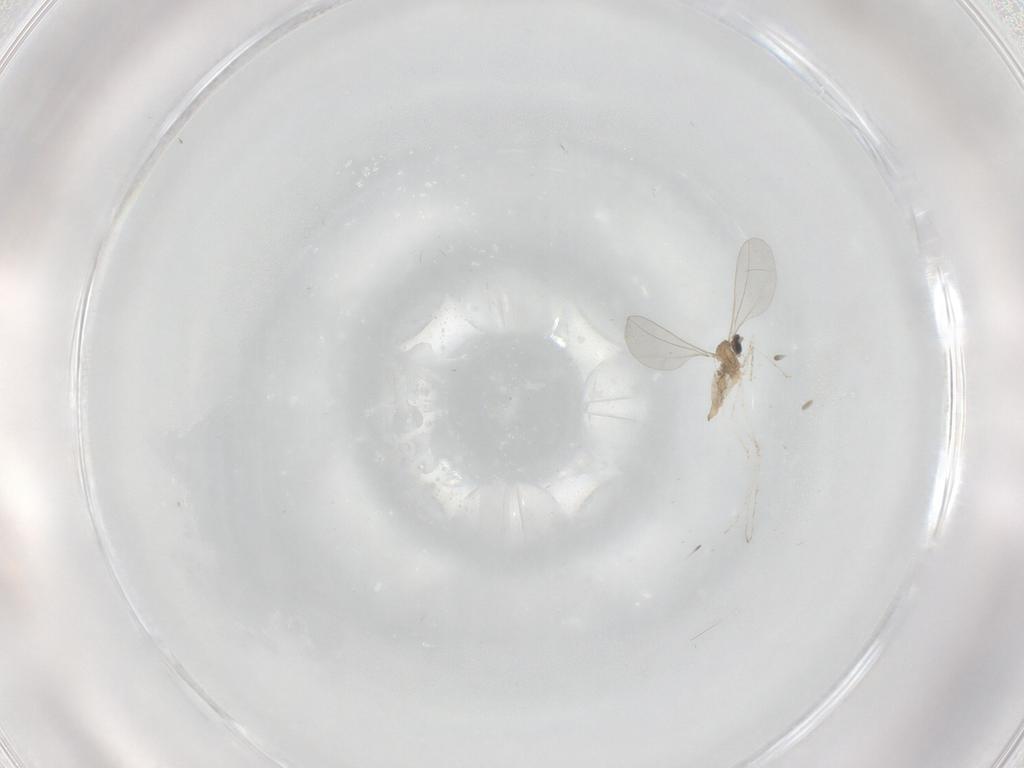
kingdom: Animalia
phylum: Arthropoda
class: Insecta
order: Diptera
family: Cecidomyiidae
